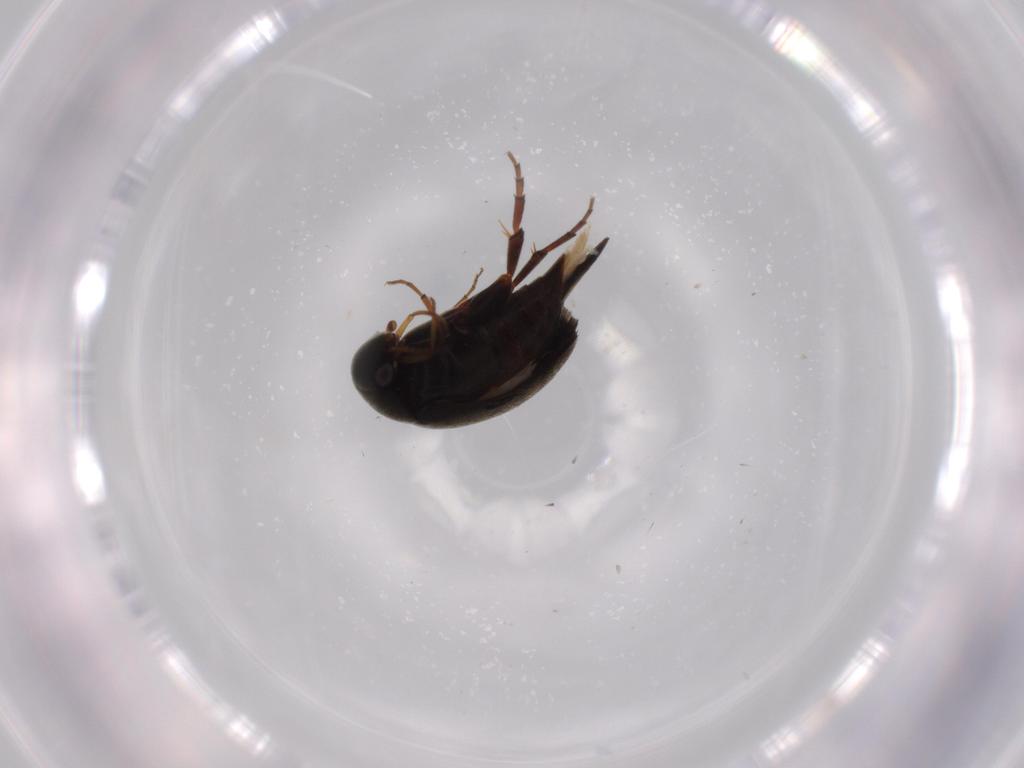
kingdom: Animalia
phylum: Arthropoda
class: Insecta
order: Coleoptera
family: Mordellidae
